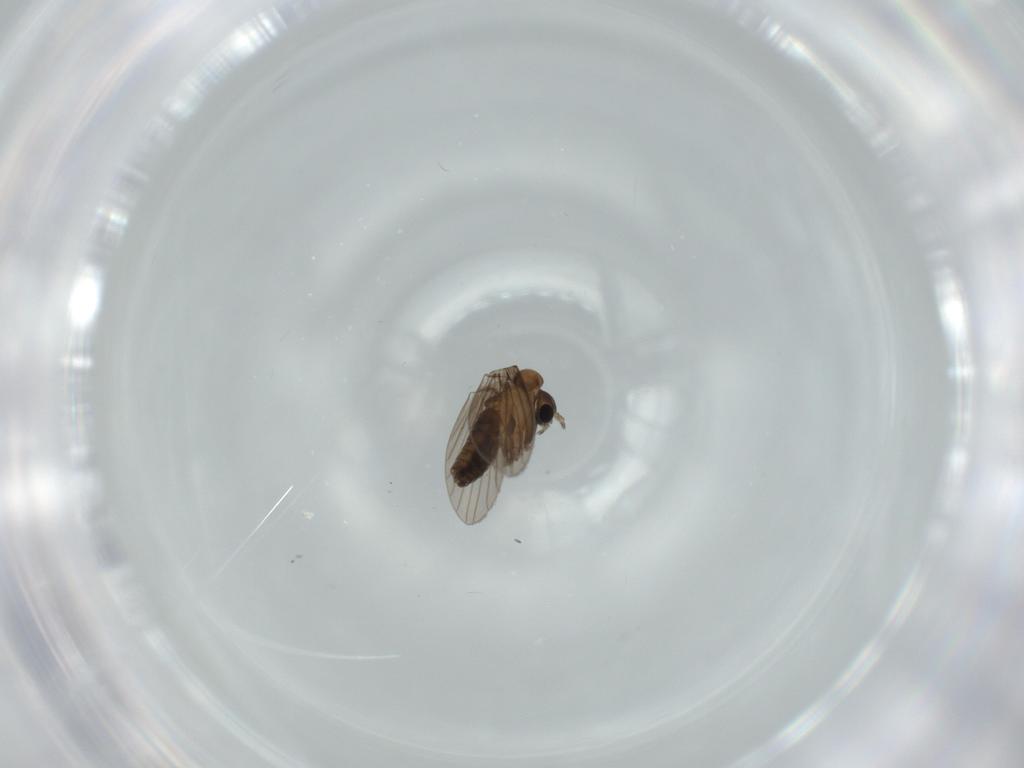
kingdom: Animalia
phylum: Arthropoda
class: Insecta
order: Diptera
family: Psychodidae
